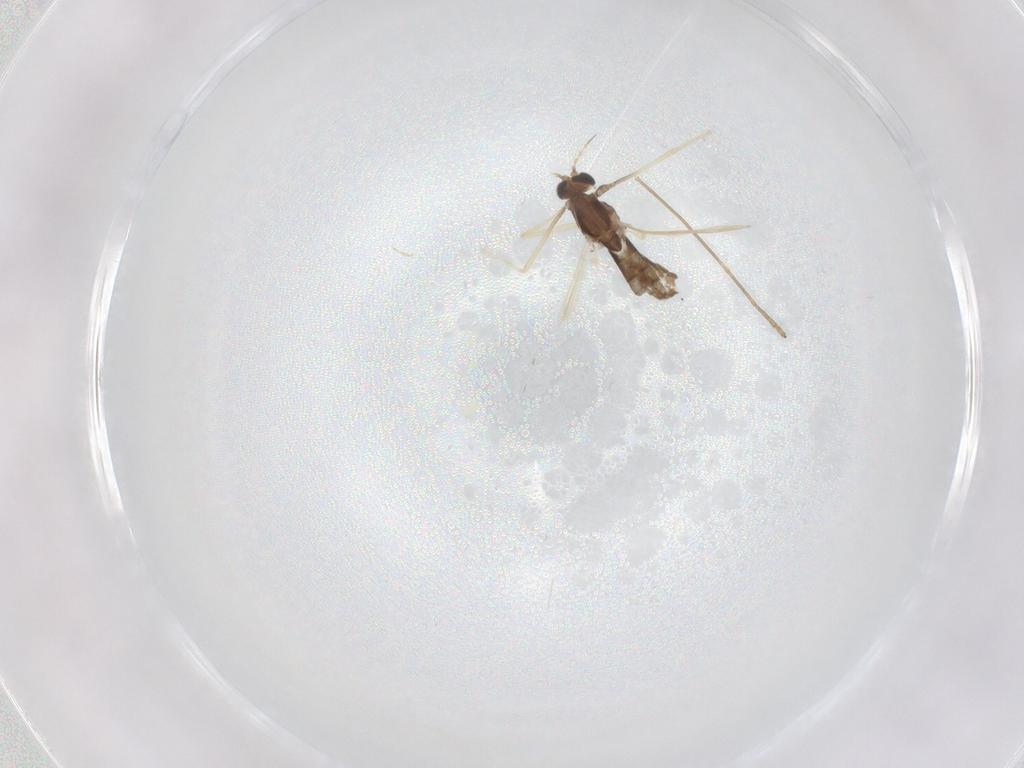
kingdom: Animalia
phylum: Arthropoda
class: Insecta
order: Diptera
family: Chironomidae
